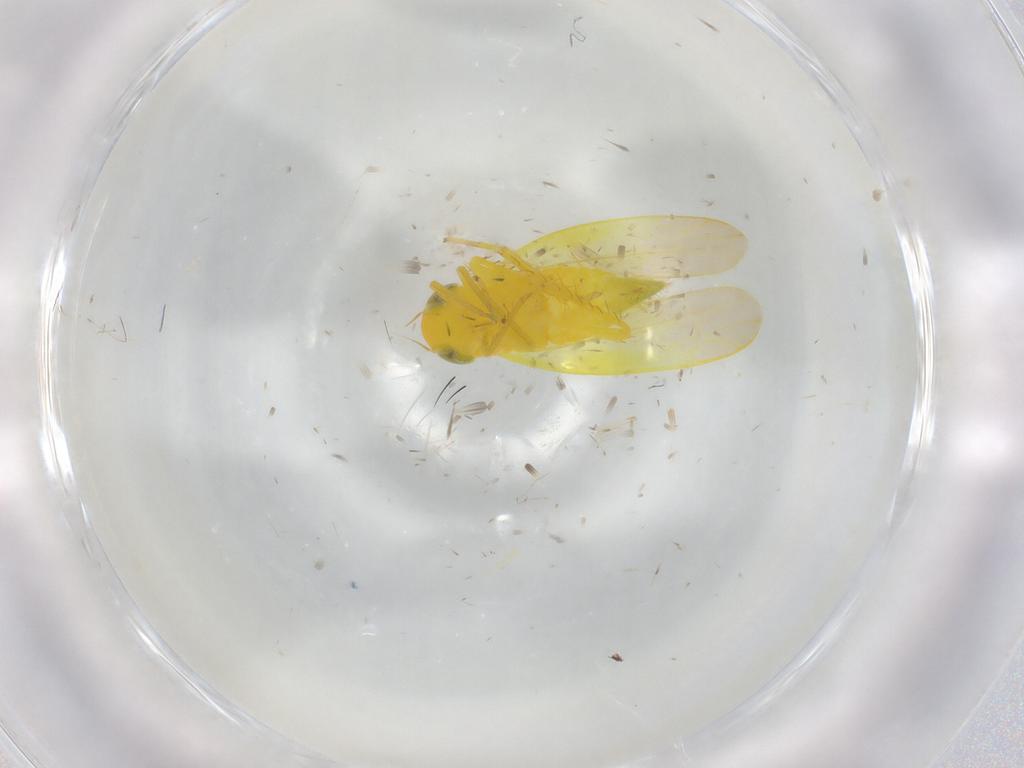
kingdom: Animalia
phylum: Arthropoda
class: Insecta
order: Hemiptera
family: Cicadellidae
